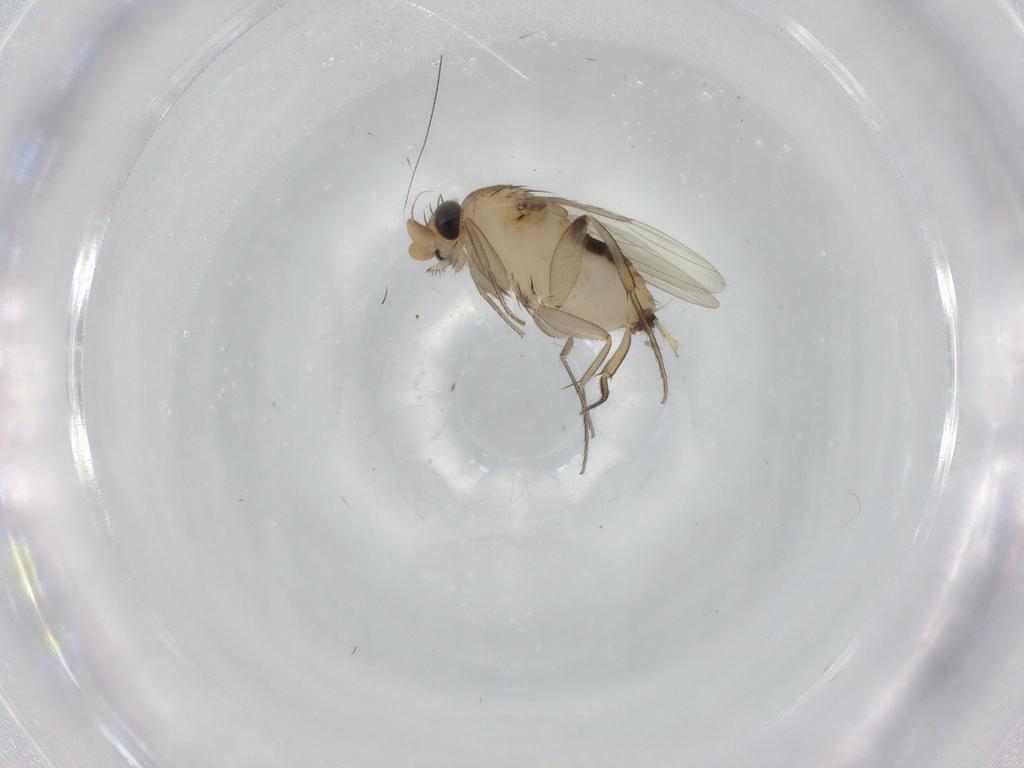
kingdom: Animalia
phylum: Arthropoda
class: Insecta
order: Diptera
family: Phoridae
